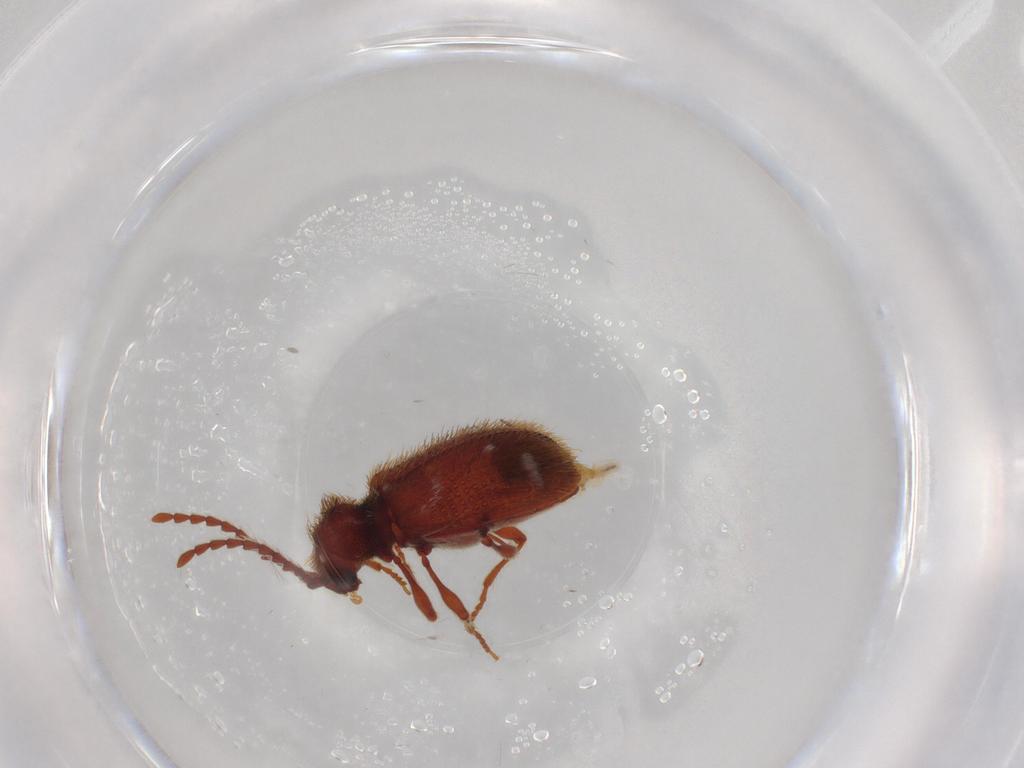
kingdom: Animalia
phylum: Arthropoda
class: Insecta
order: Coleoptera
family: Ptinidae
